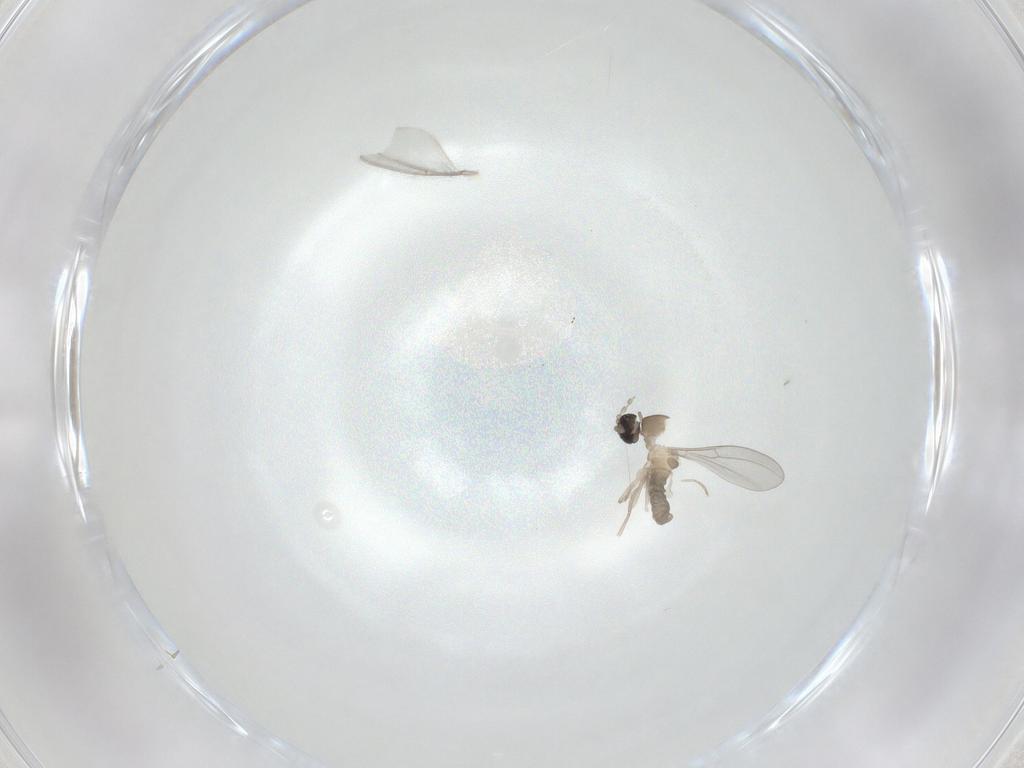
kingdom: Animalia
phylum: Arthropoda
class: Insecta
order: Diptera
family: Cecidomyiidae
